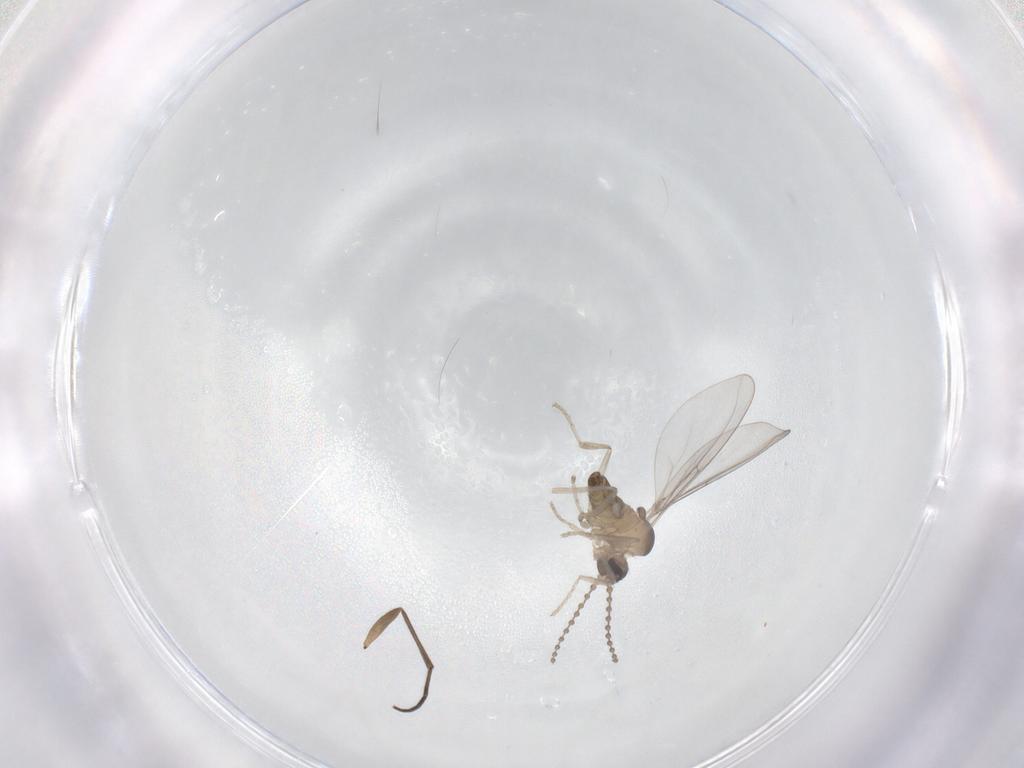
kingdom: Animalia
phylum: Arthropoda
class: Insecta
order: Diptera
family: Cecidomyiidae
